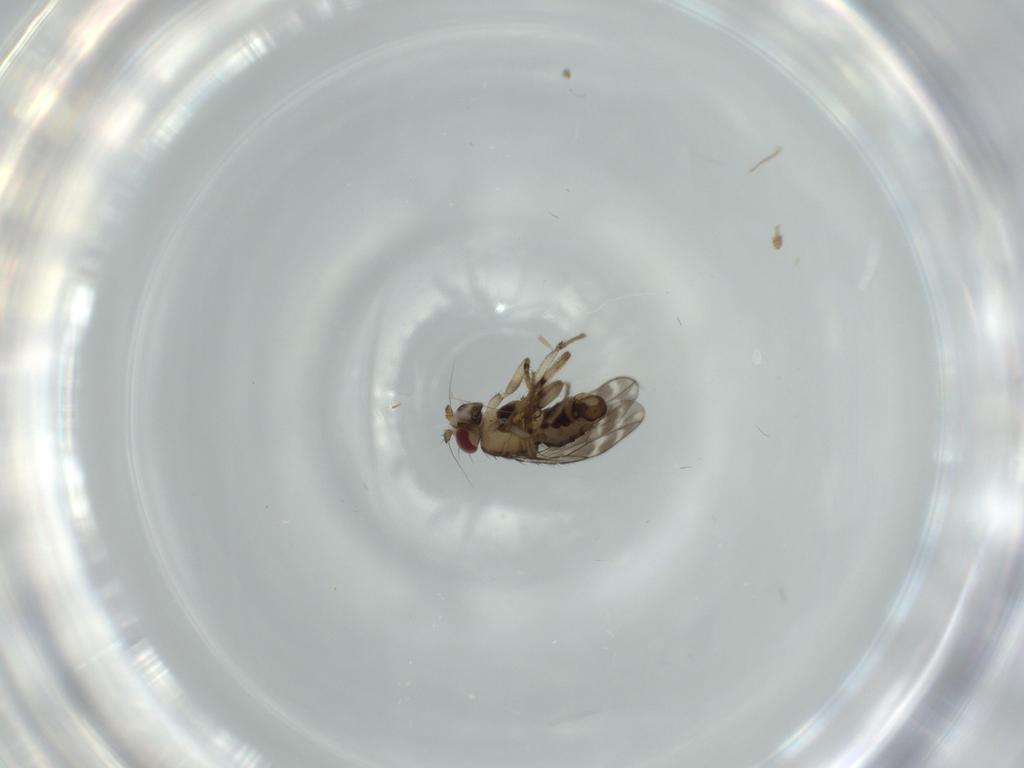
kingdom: Animalia
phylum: Arthropoda
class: Insecta
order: Diptera
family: Sphaeroceridae
